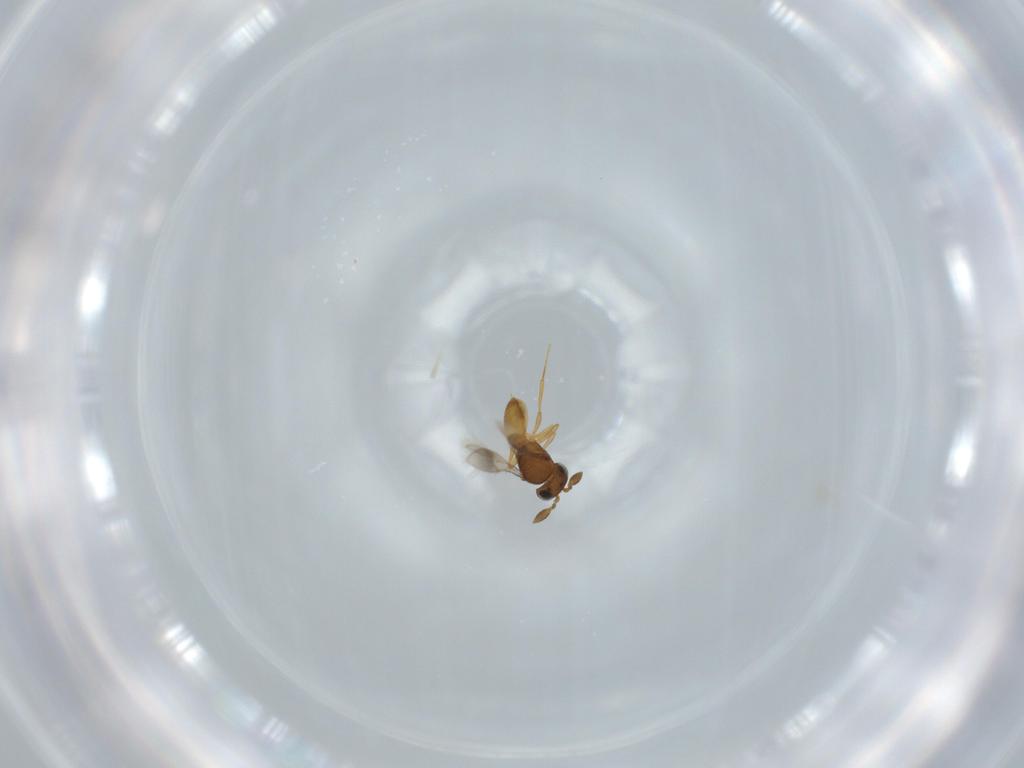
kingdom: Animalia
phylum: Arthropoda
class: Insecta
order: Hymenoptera
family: Scelionidae
